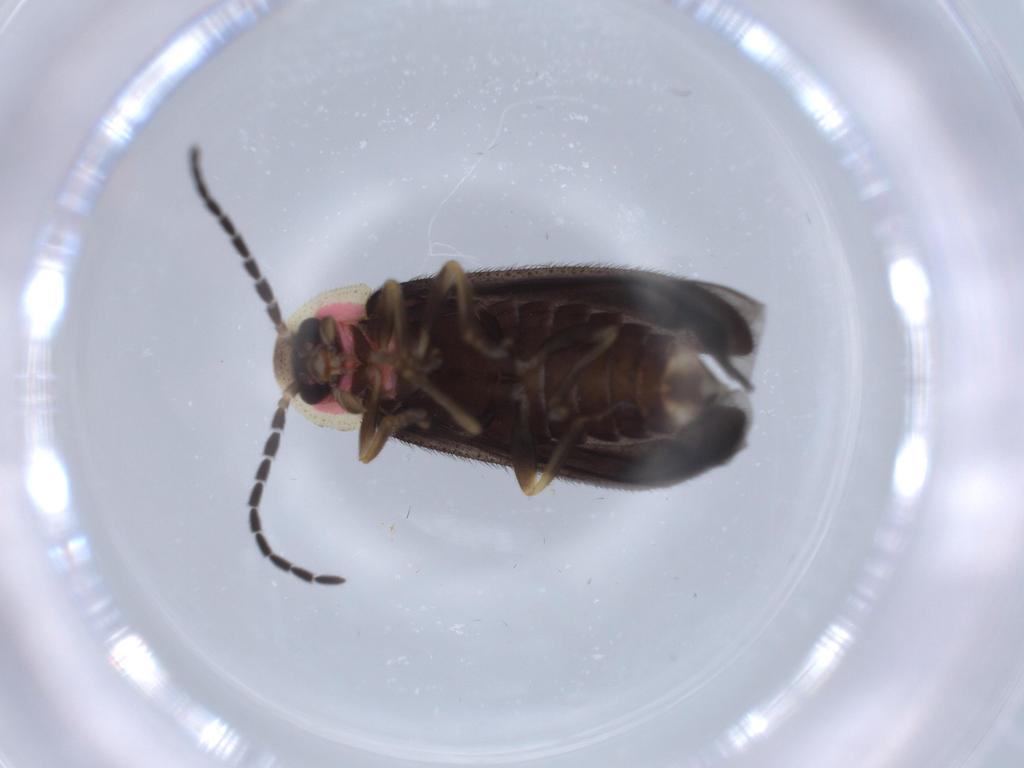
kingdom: Animalia
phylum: Arthropoda
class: Insecta
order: Coleoptera
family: Lampyridae
